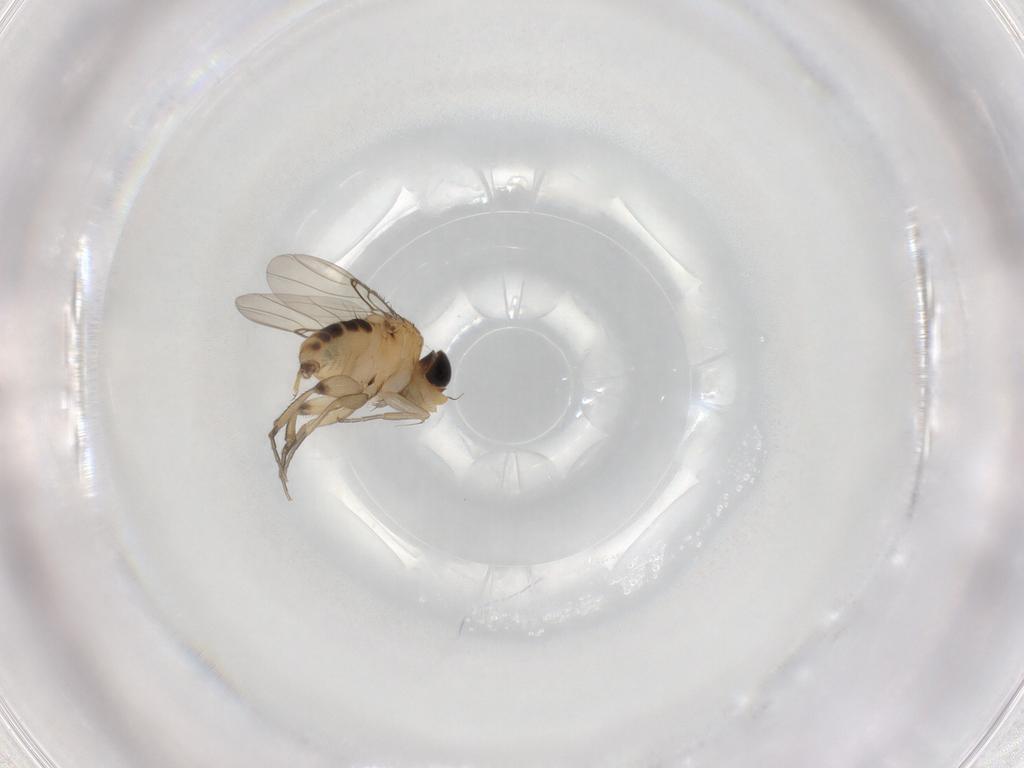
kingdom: Animalia
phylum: Arthropoda
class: Insecta
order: Diptera
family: Phoridae
